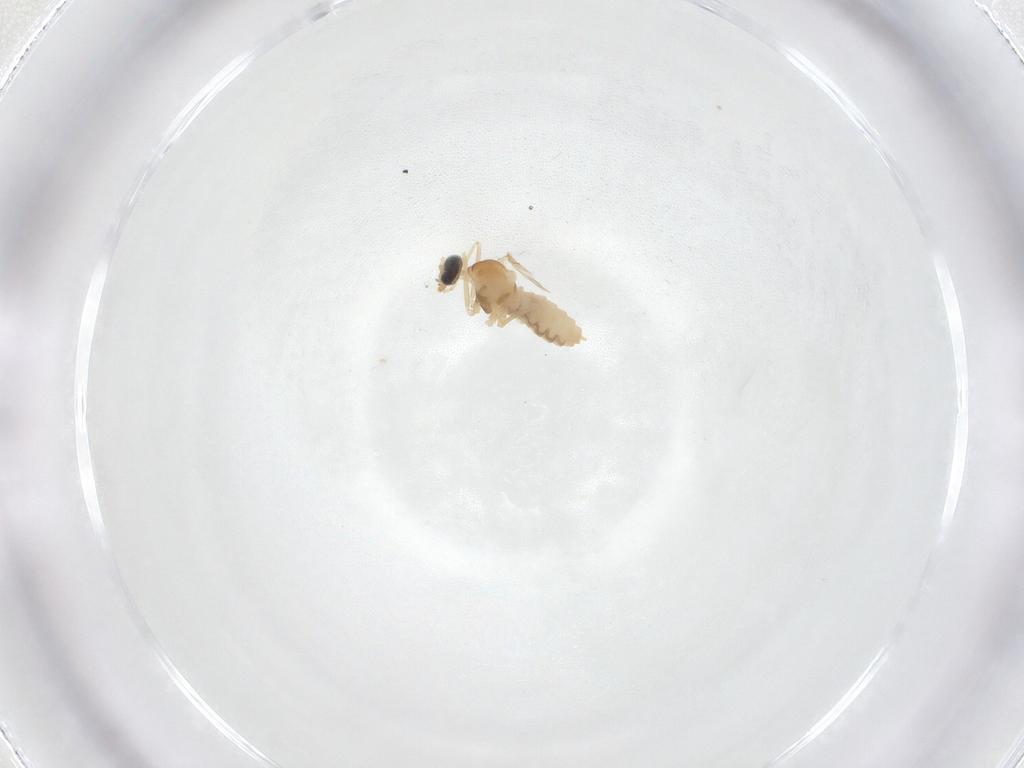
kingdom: Animalia
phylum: Arthropoda
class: Insecta
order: Diptera
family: Cecidomyiidae
